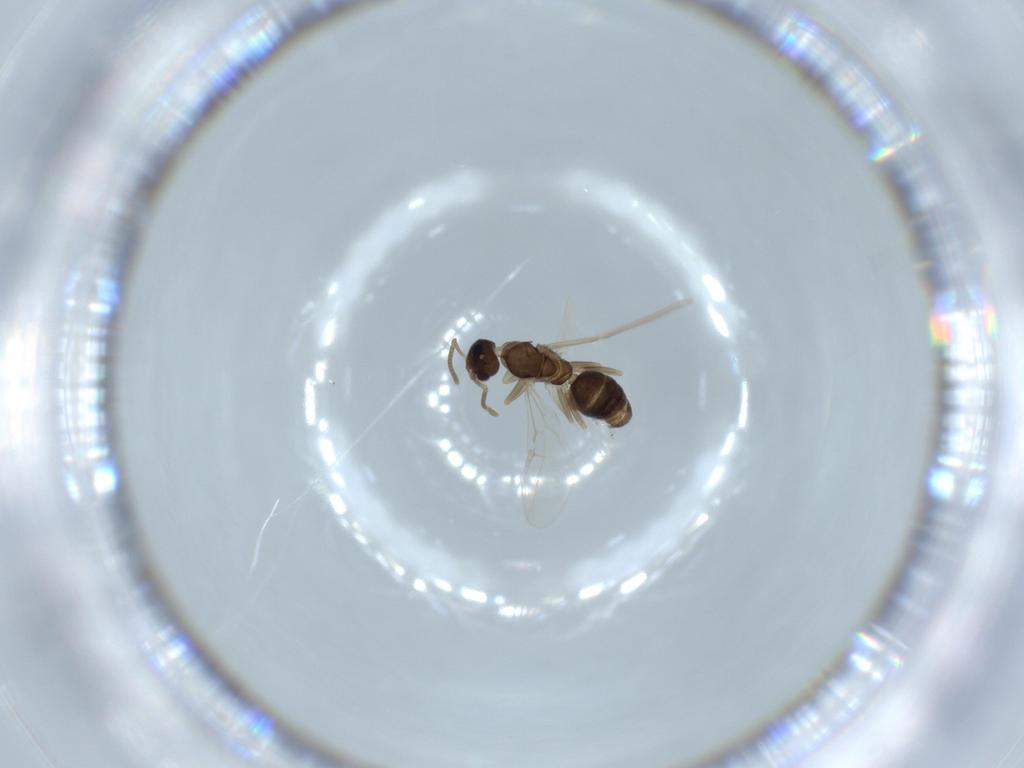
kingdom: Animalia
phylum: Arthropoda
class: Insecta
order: Hymenoptera
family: Formicidae
